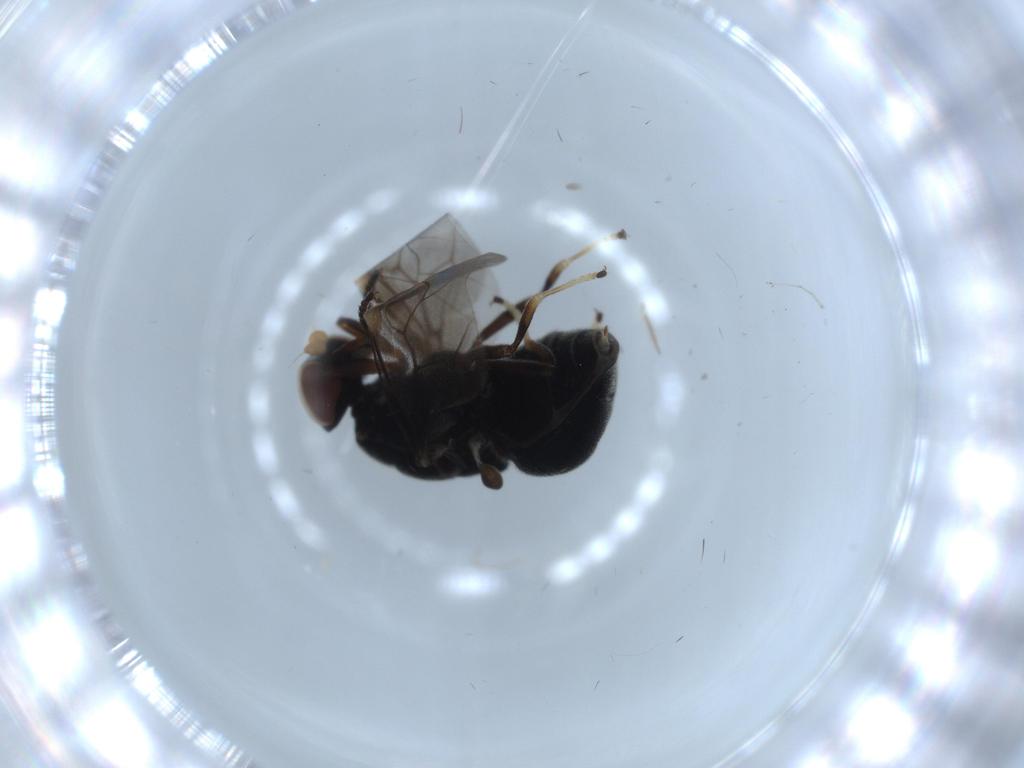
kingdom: Animalia
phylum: Arthropoda
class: Insecta
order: Diptera
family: Stratiomyidae
